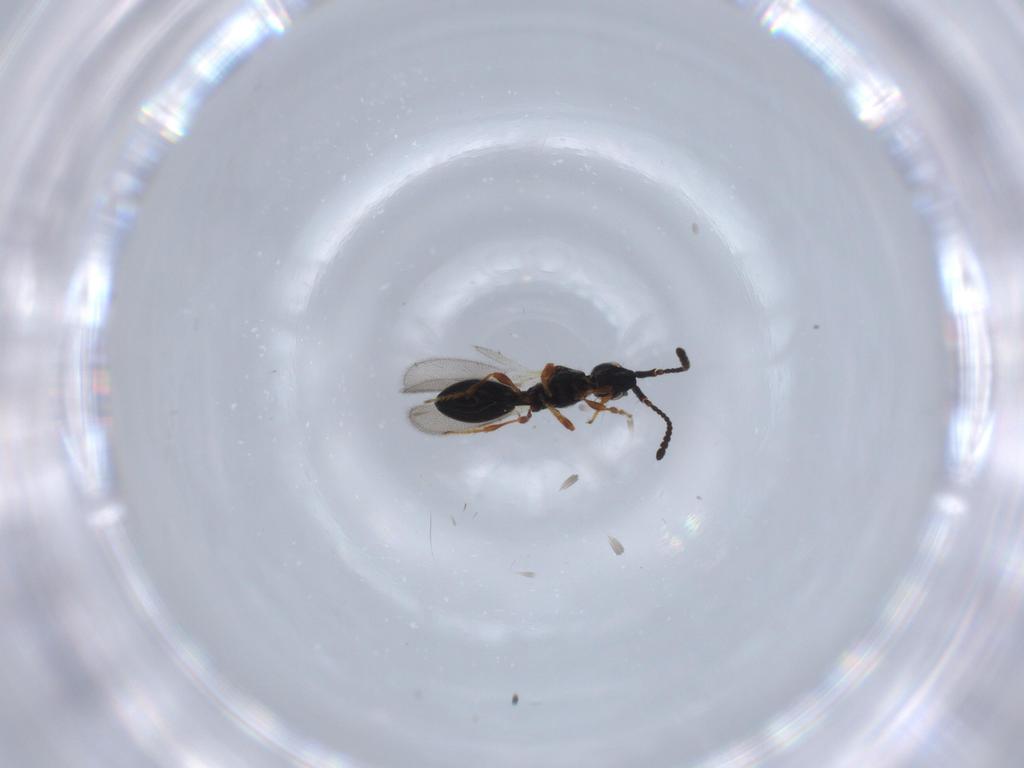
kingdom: Animalia
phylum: Arthropoda
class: Insecta
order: Hymenoptera
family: Diapriidae
